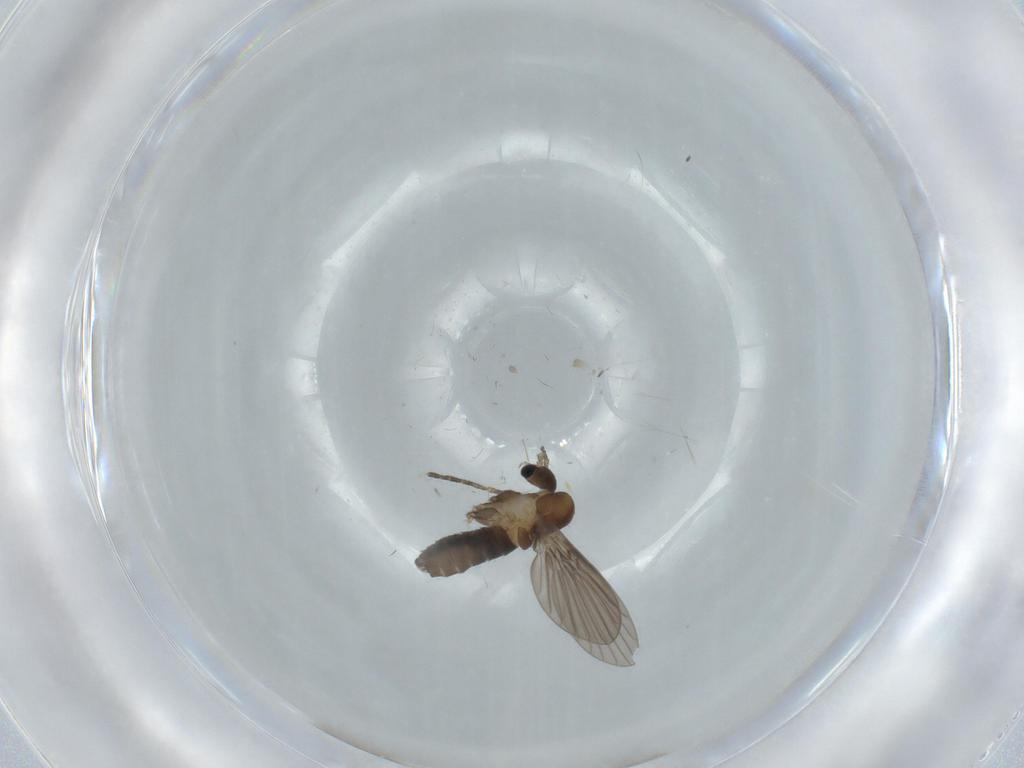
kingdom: Animalia
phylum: Arthropoda
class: Insecta
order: Diptera
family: Psychodidae
